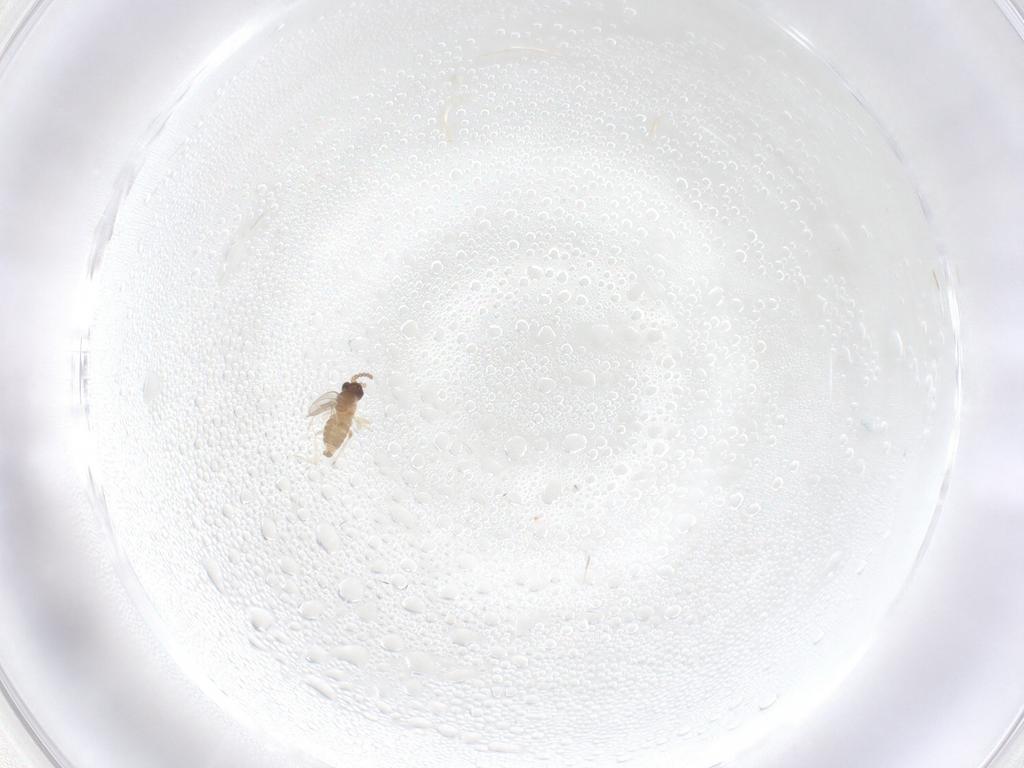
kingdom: Animalia
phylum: Arthropoda
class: Insecta
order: Diptera
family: Cecidomyiidae
